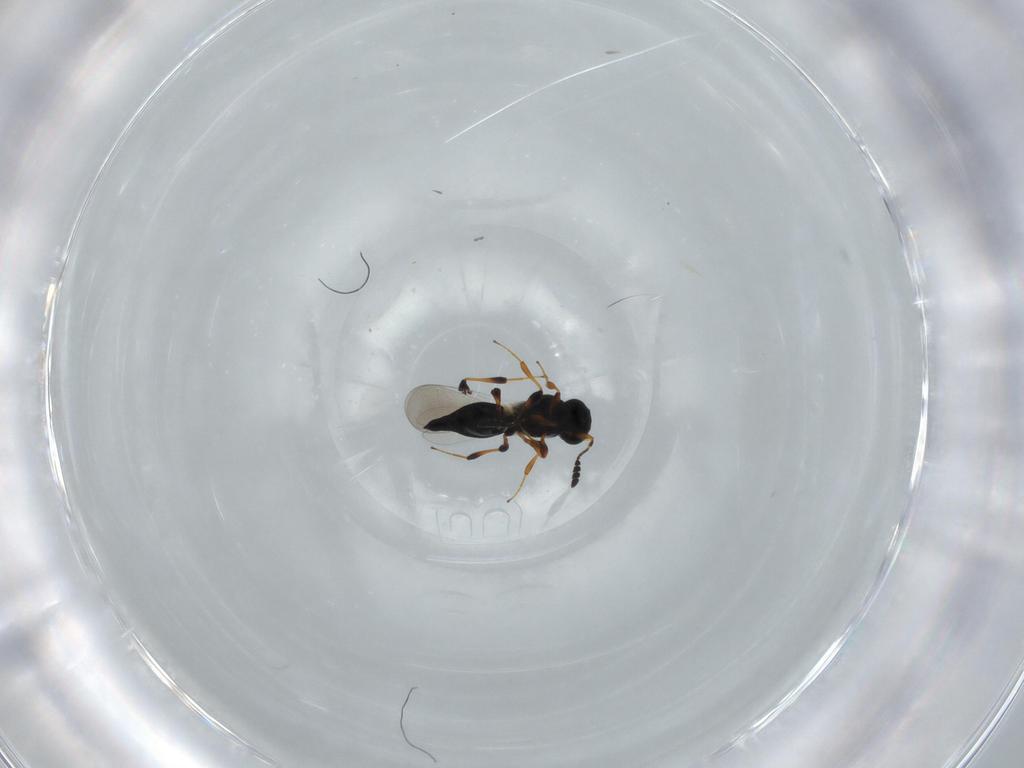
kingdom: Animalia
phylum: Arthropoda
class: Insecta
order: Hymenoptera
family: Platygastridae
